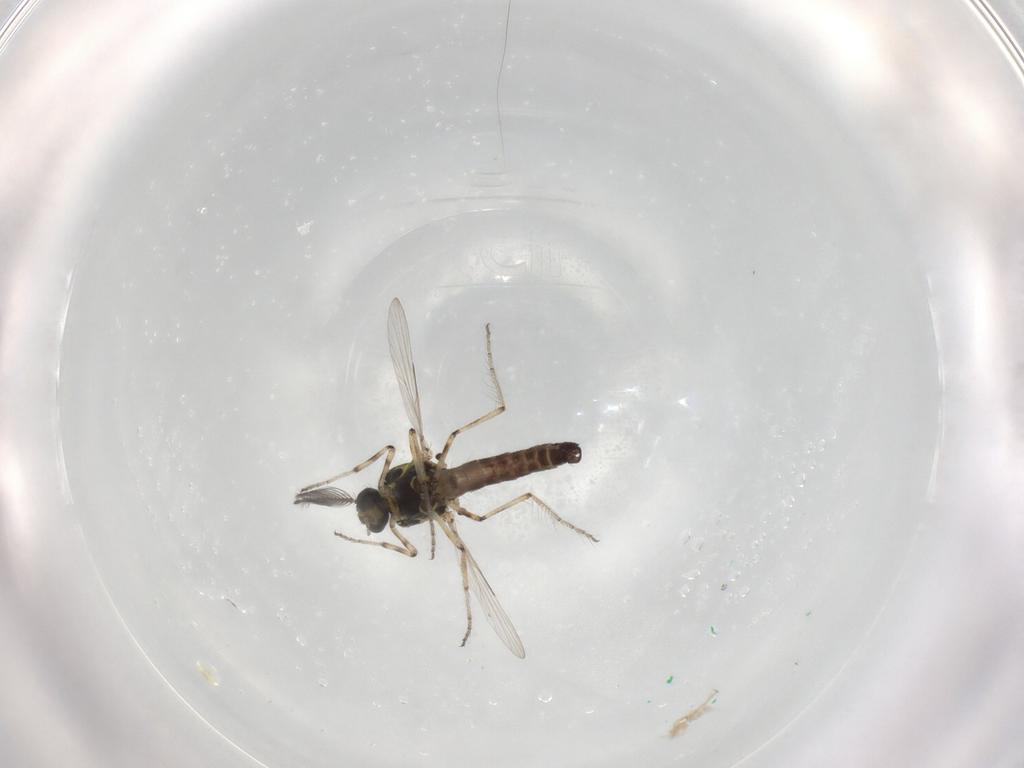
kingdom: Animalia
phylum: Arthropoda
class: Insecta
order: Diptera
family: Ceratopogonidae
